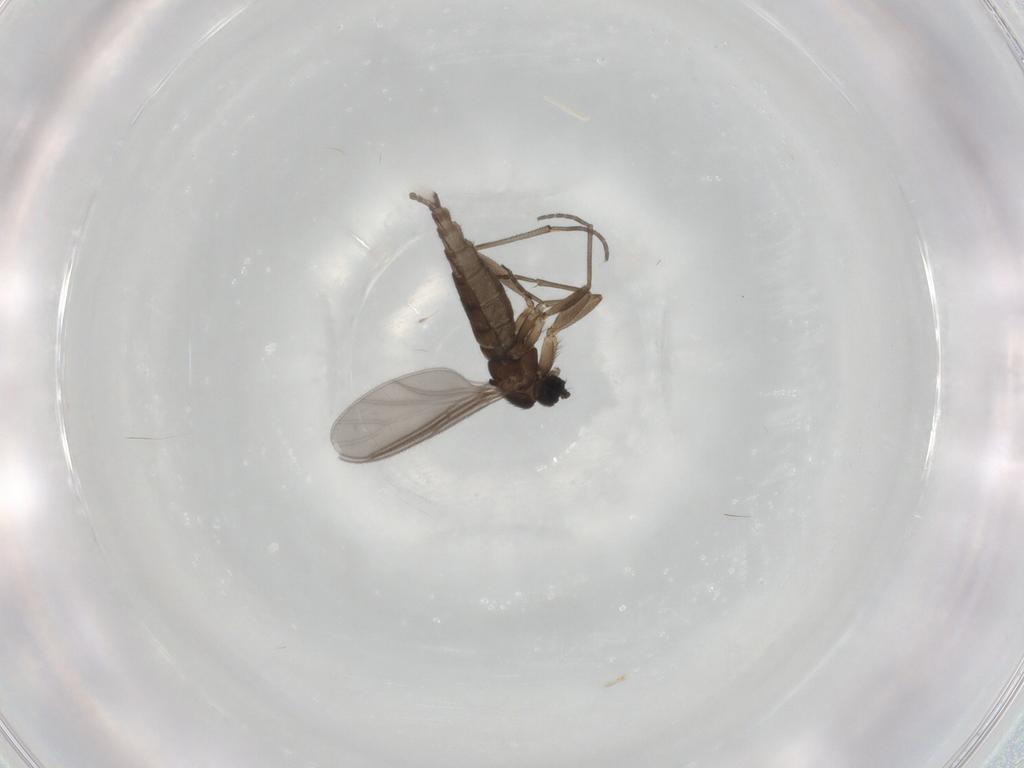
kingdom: Animalia
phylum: Arthropoda
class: Insecta
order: Diptera
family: Sciaridae
